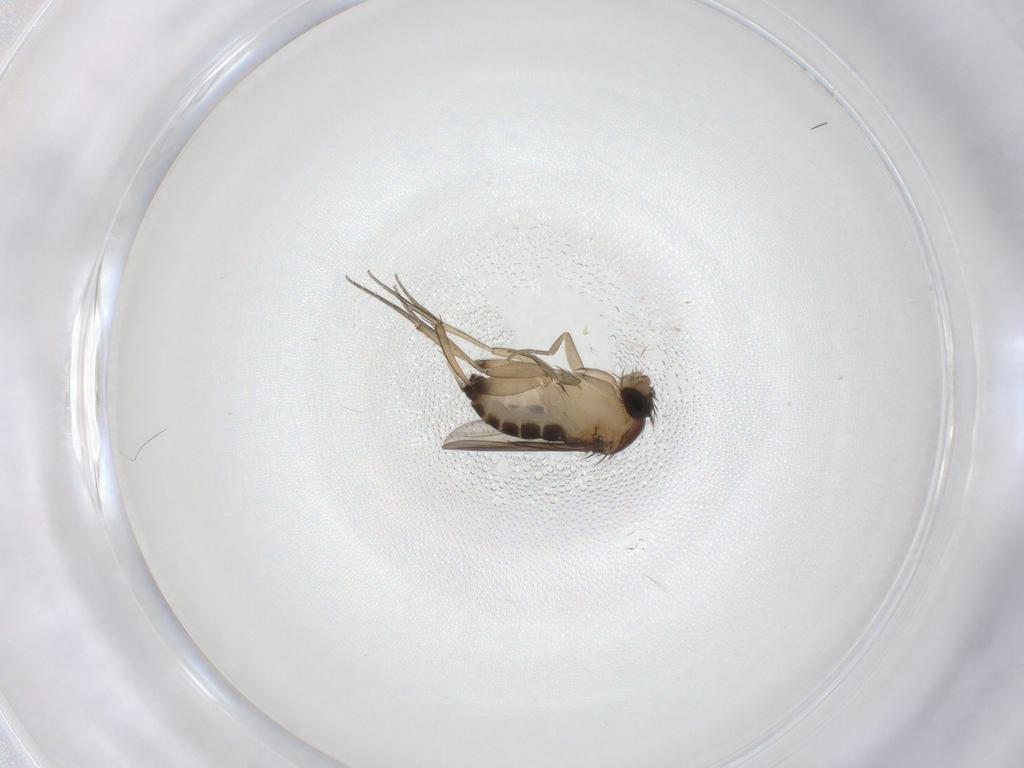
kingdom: Animalia
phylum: Arthropoda
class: Insecta
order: Diptera
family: Phoridae
